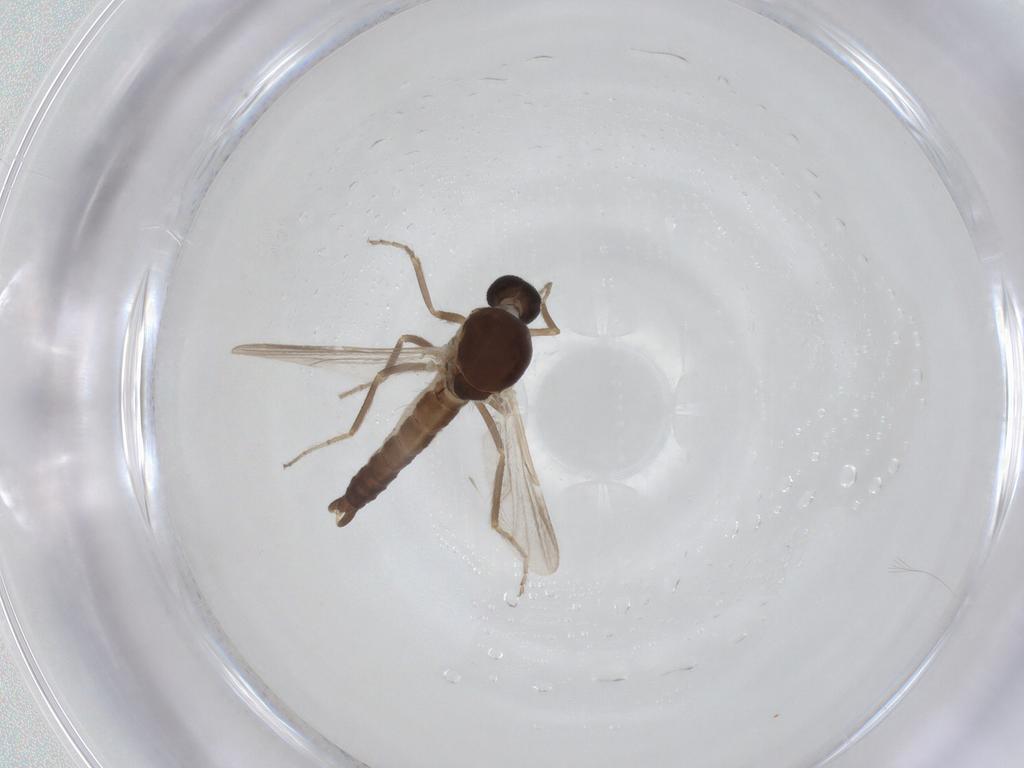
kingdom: Animalia
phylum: Arthropoda
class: Insecta
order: Diptera
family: Ceratopogonidae
